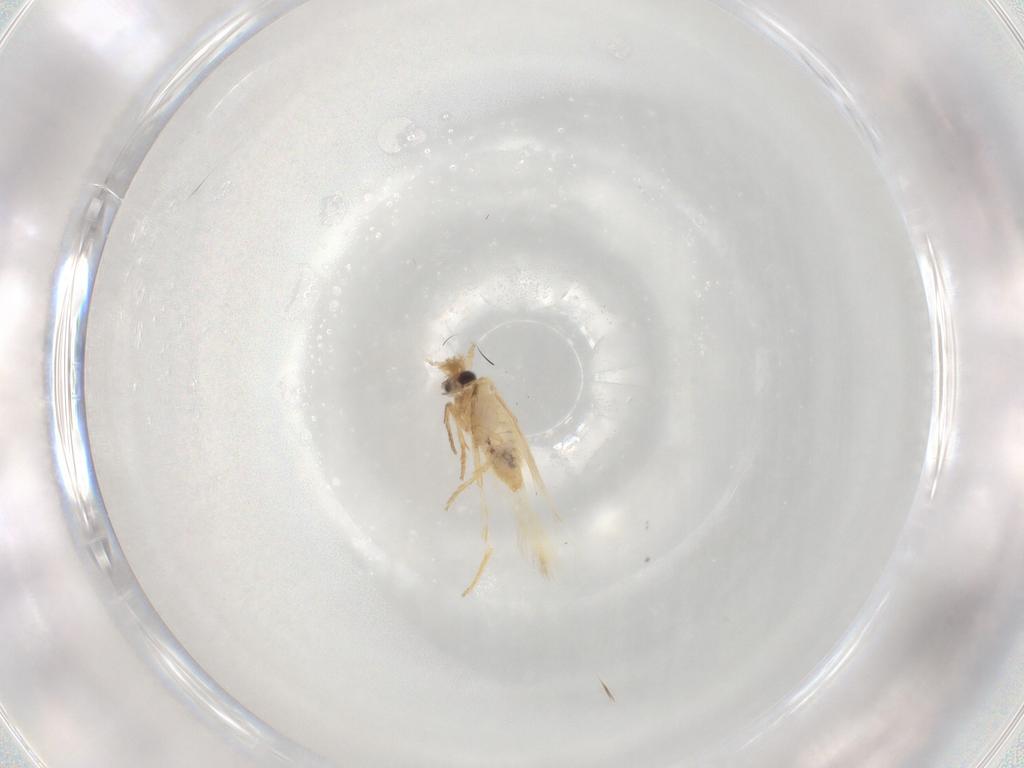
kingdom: Animalia
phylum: Arthropoda
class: Insecta
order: Lepidoptera
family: Nepticulidae
